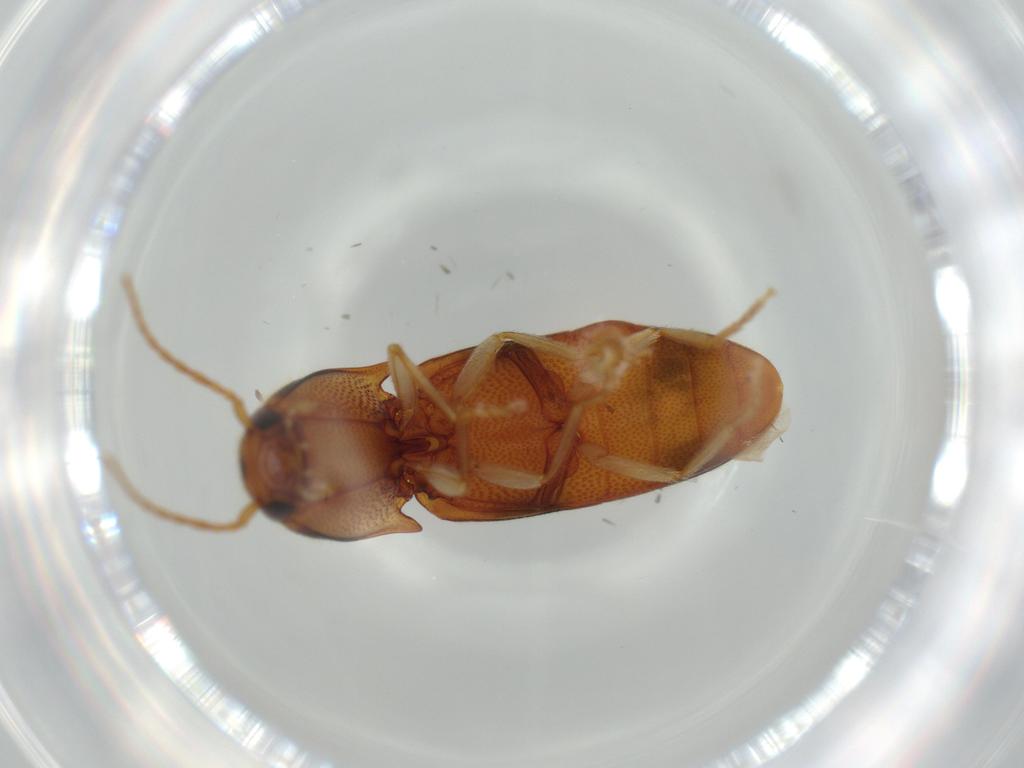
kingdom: Animalia
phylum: Arthropoda
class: Insecta
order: Coleoptera
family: Elateridae
